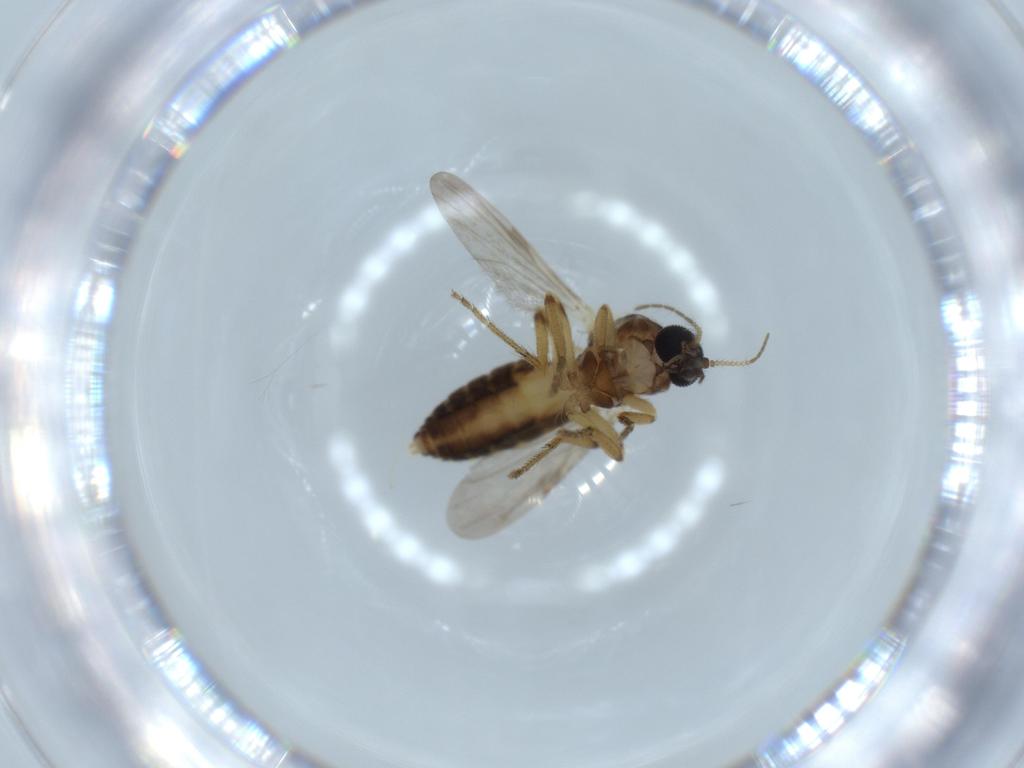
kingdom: Animalia
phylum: Arthropoda
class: Insecta
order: Diptera
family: Ceratopogonidae
